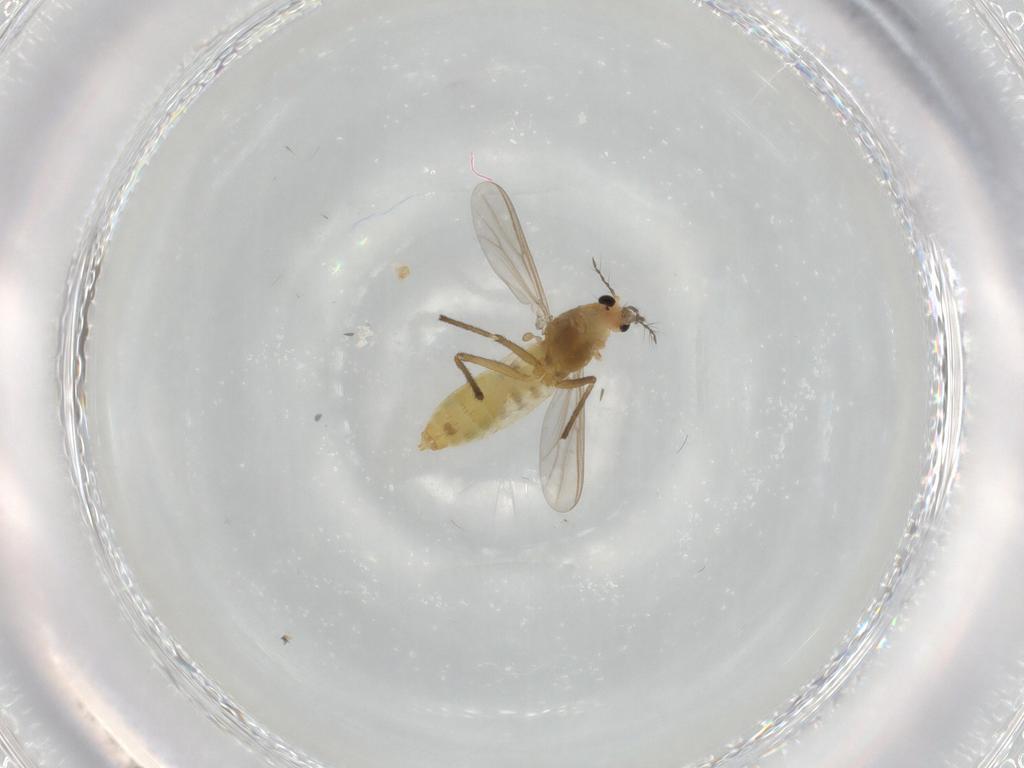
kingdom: Animalia
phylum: Arthropoda
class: Insecta
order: Diptera
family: Chironomidae
